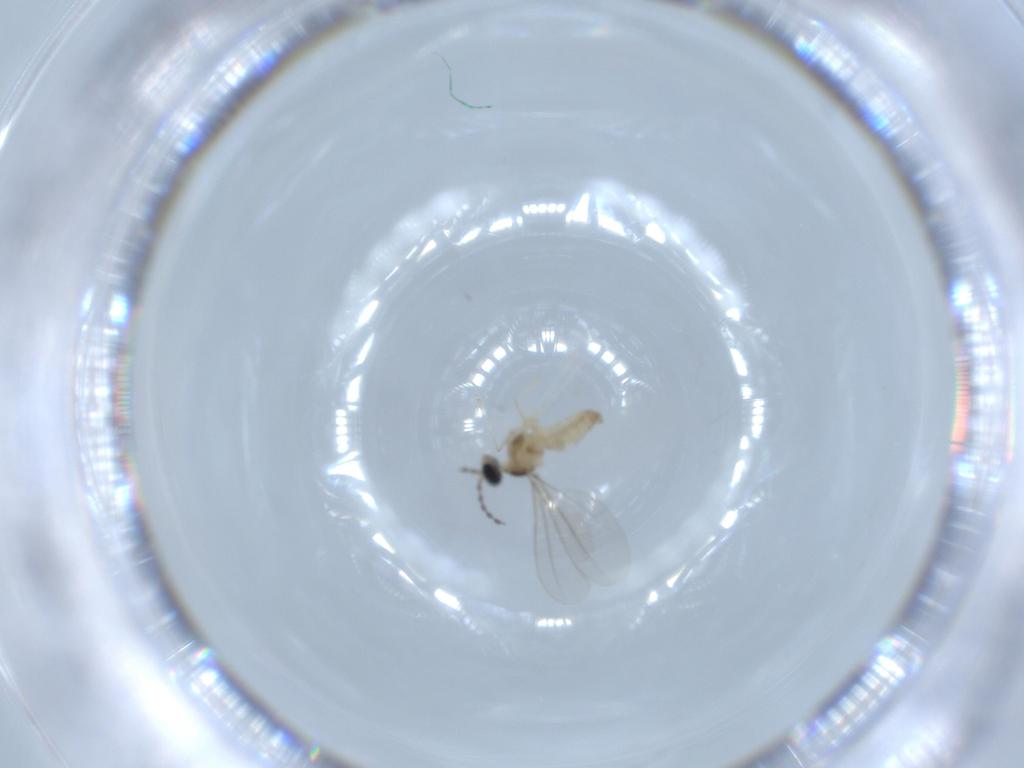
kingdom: Animalia
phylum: Arthropoda
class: Insecta
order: Diptera
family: Cecidomyiidae
